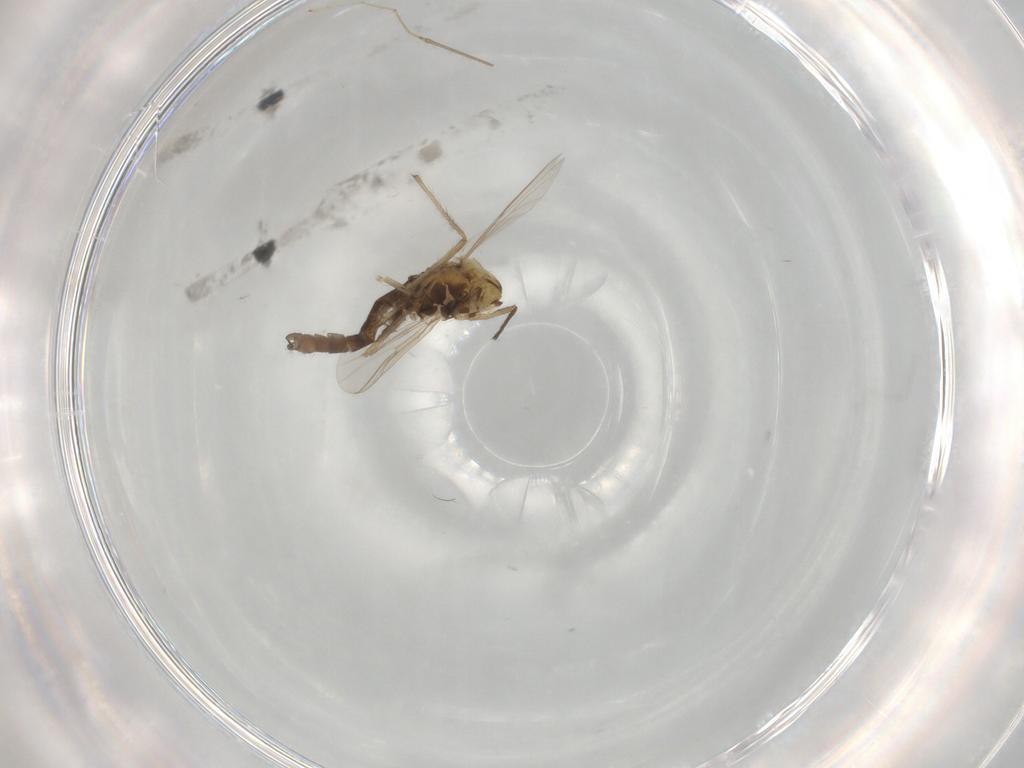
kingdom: Animalia
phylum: Arthropoda
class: Insecta
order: Diptera
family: Chironomidae
